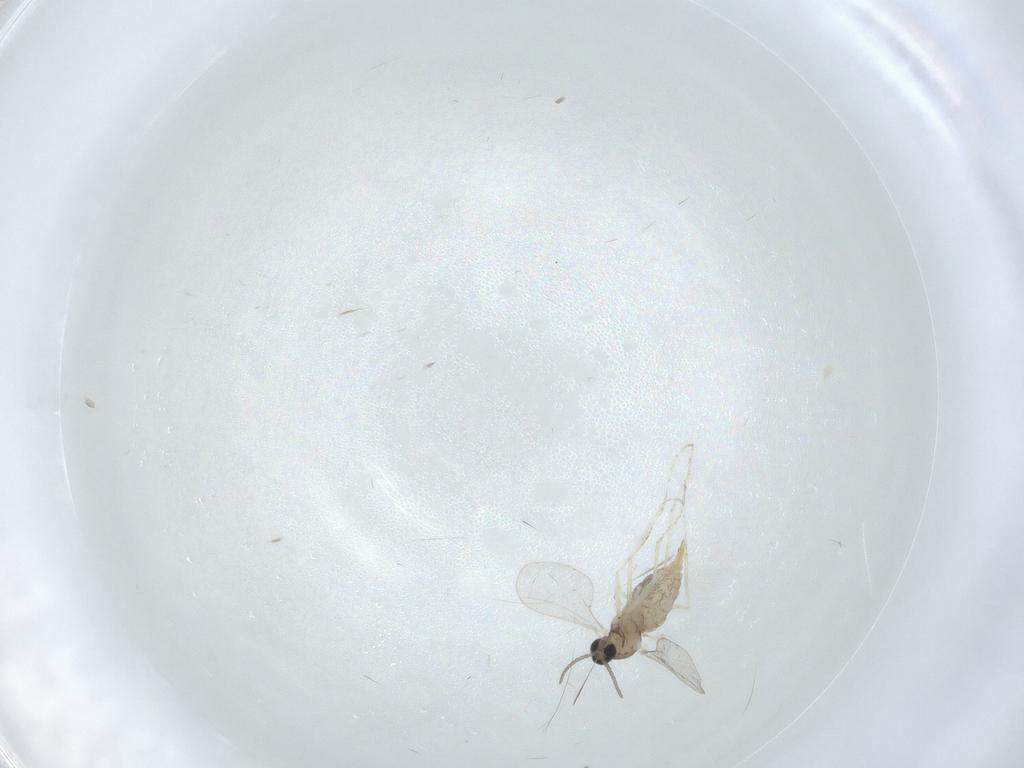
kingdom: Animalia
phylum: Arthropoda
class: Insecta
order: Diptera
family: Cecidomyiidae
